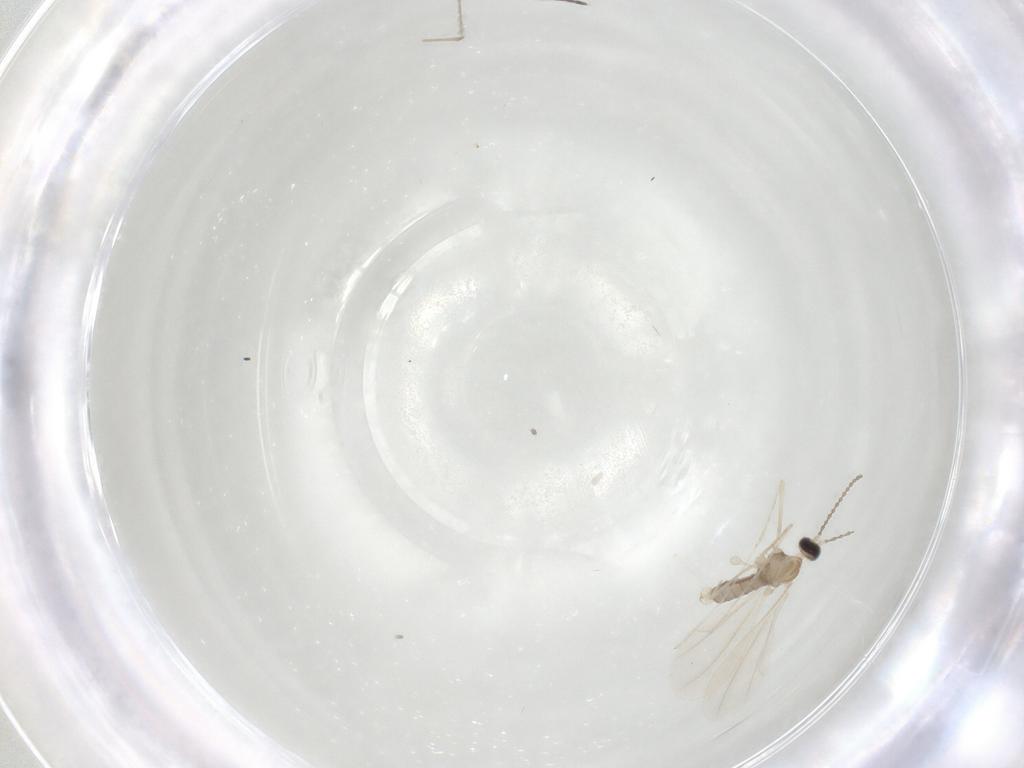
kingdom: Animalia
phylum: Arthropoda
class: Insecta
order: Diptera
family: Cecidomyiidae
